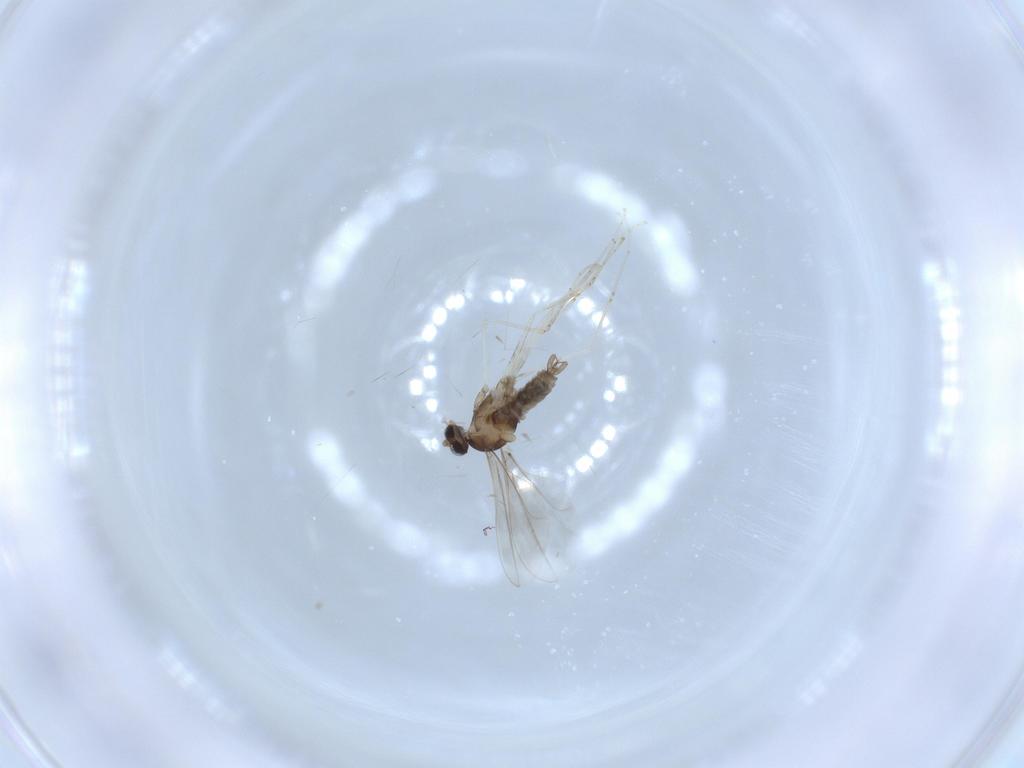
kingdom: Animalia
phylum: Arthropoda
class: Insecta
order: Diptera
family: Cecidomyiidae
